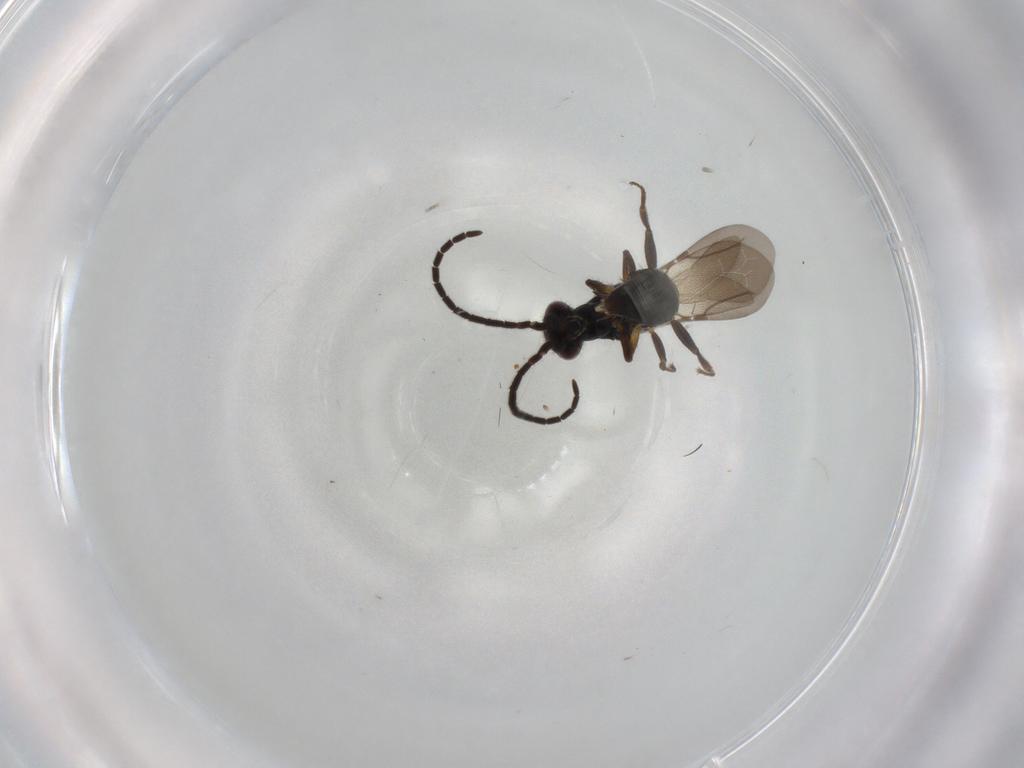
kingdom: Animalia
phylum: Arthropoda
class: Insecta
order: Hymenoptera
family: Bethylidae
